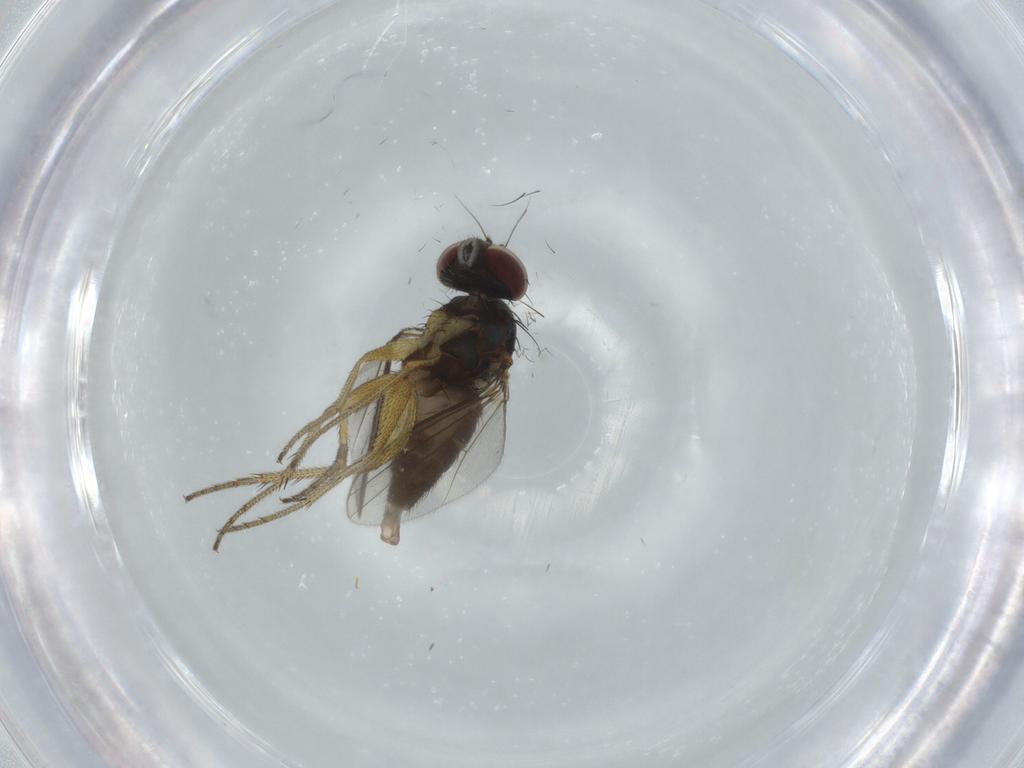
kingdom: Animalia
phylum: Arthropoda
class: Insecta
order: Diptera
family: Dolichopodidae
